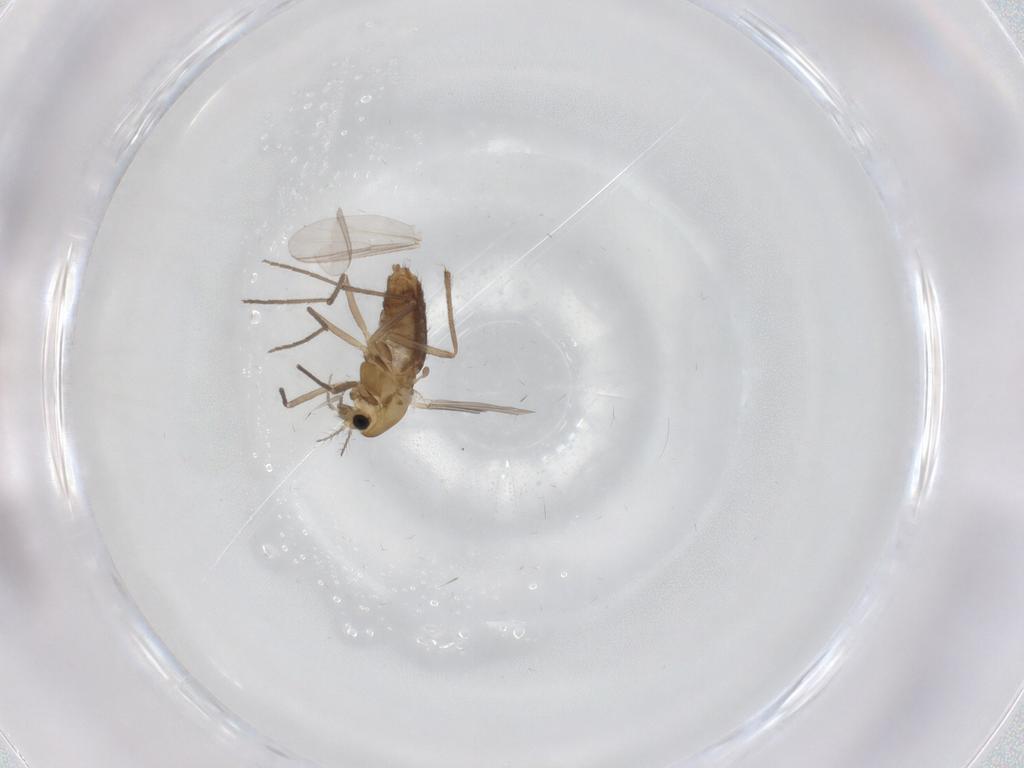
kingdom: Animalia
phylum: Arthropoda
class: Insecta
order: Diptera
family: Chironomidae
